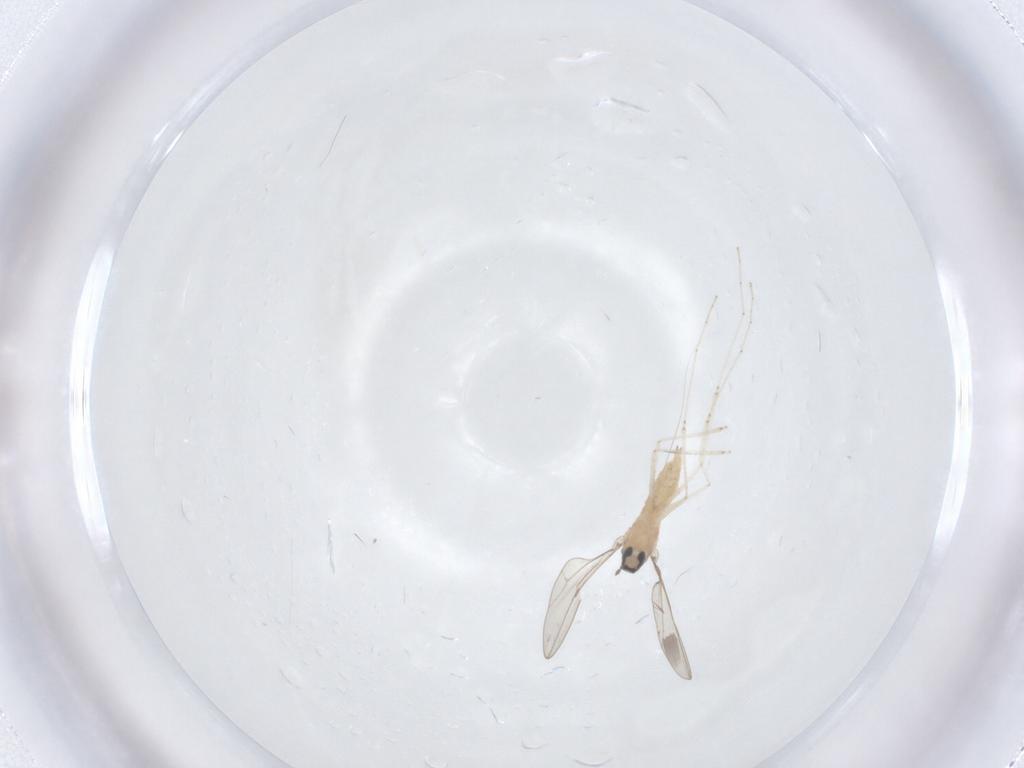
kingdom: Animalia
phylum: Arthropoda
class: Insecta
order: Diptera
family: Cecidomyiidae
